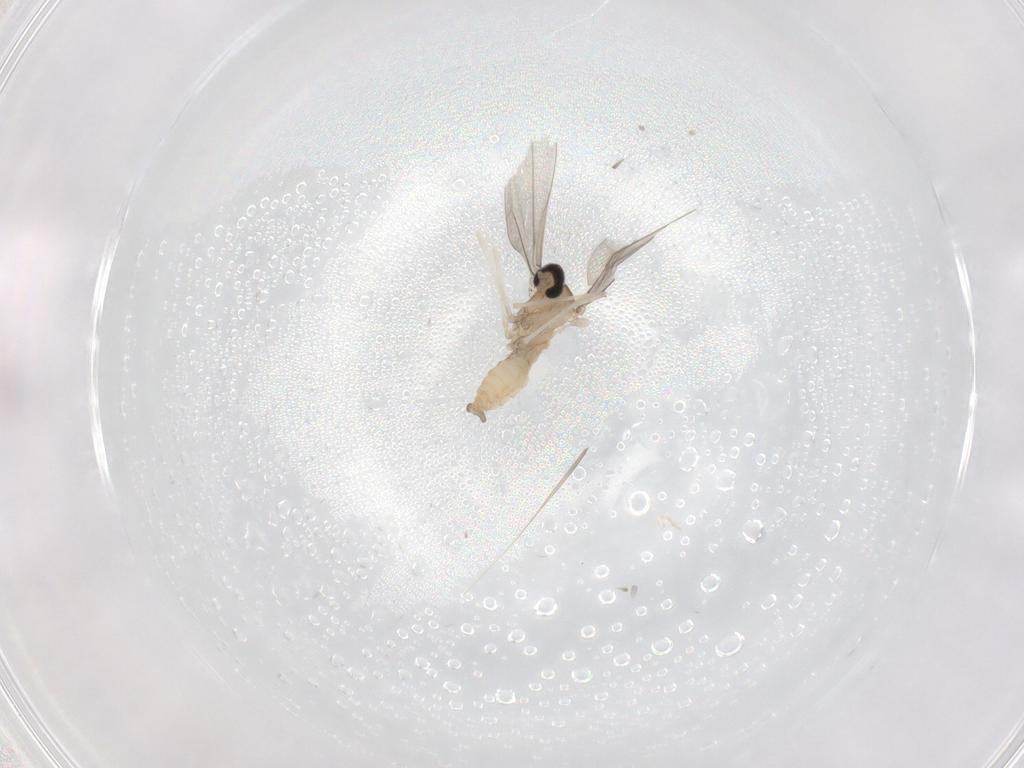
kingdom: Animalia
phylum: Arthropoda
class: Insecta
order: Diptera
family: Cecidomyiidae
